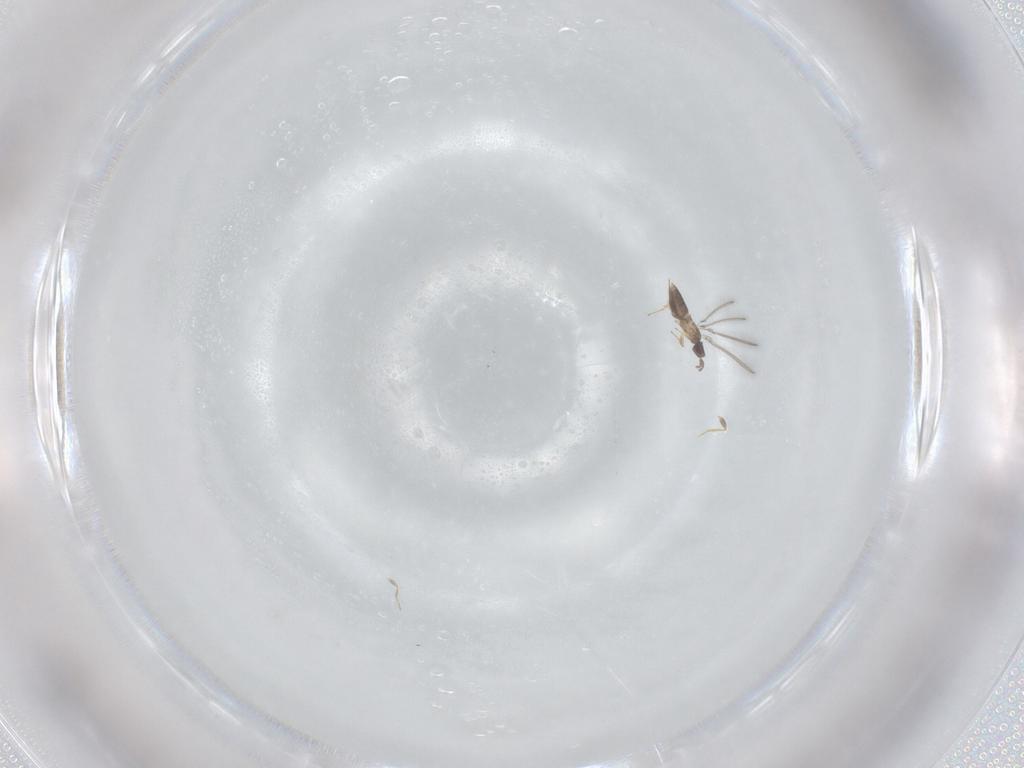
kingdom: Animalia
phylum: Arthropoda
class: Insecta
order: Hymenoptera
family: Mymaridae
